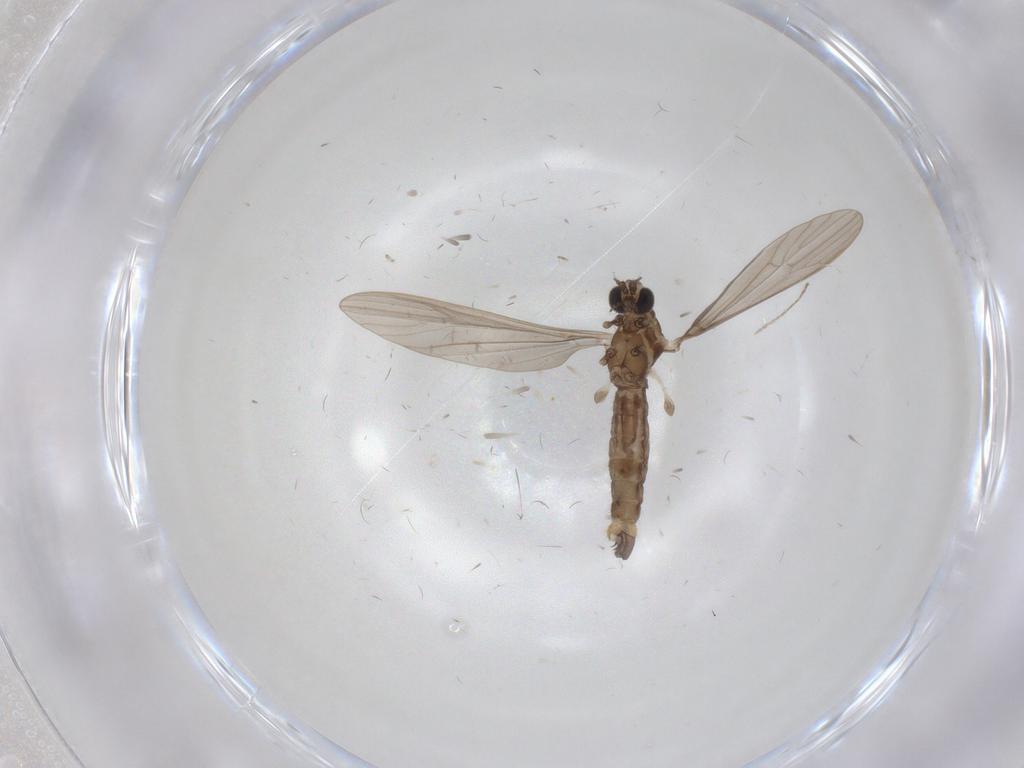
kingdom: Animalia
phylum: Arthropoda
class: Insecta
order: Diptera
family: Limoniidae
